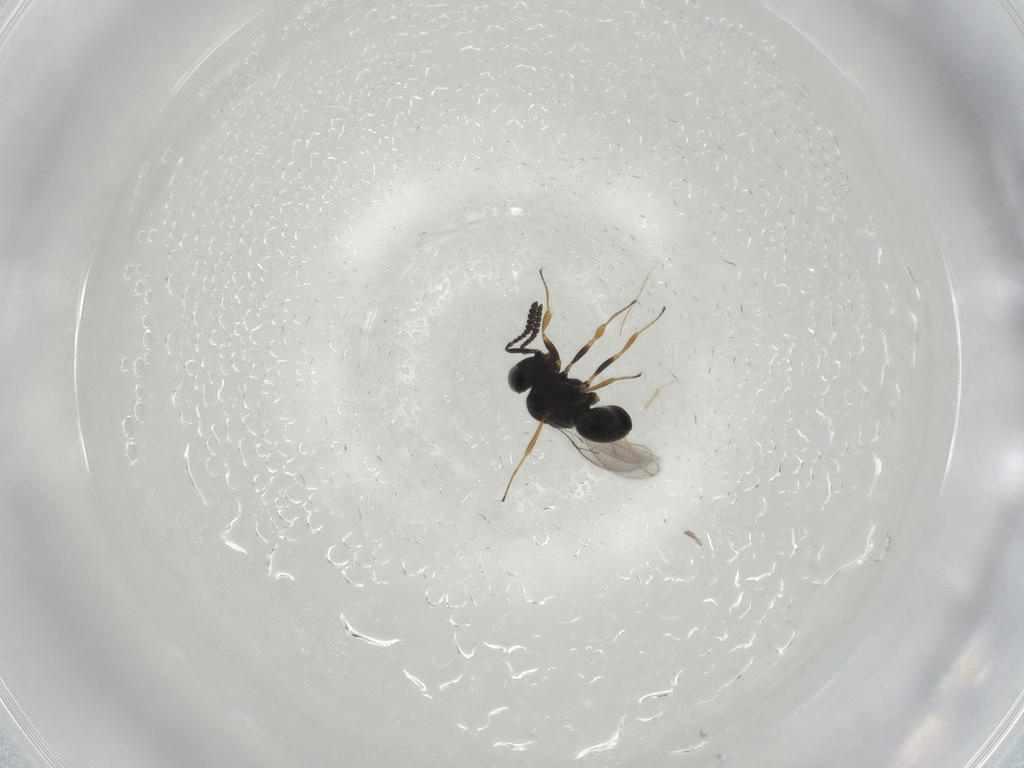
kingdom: Animalia
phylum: Arthropoda
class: Insecta
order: Hymenoptera
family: Scelionidae
